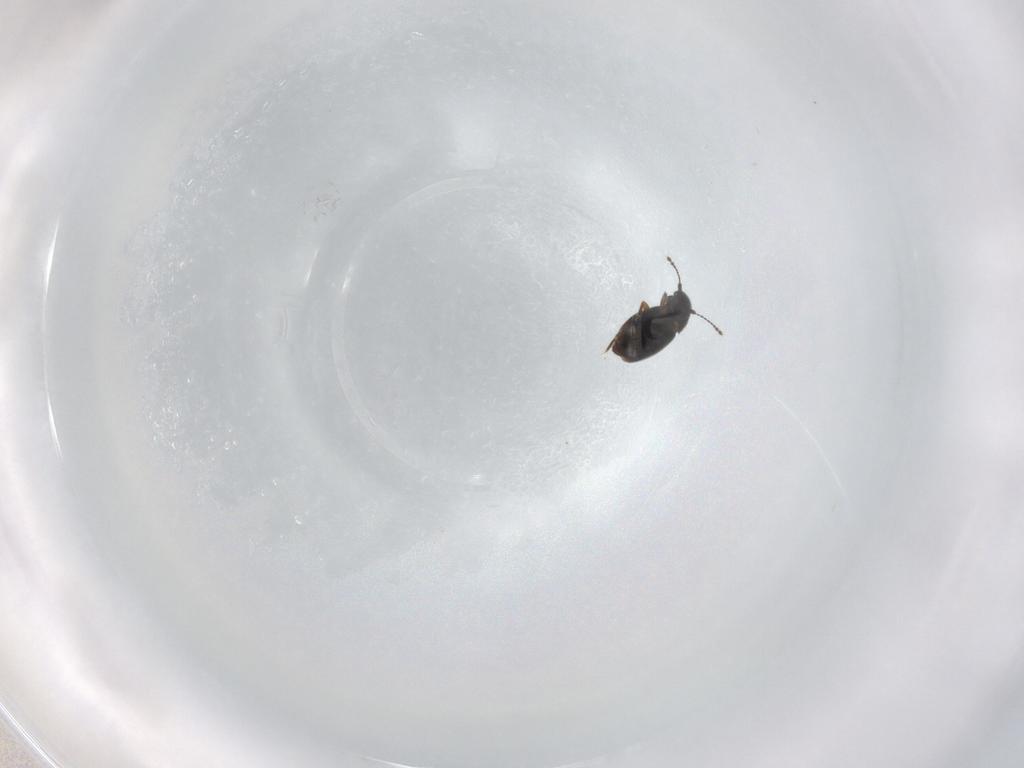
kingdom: Animalia
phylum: Arthropoda
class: Insecta
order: Coleoptera
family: Ptiliidae
